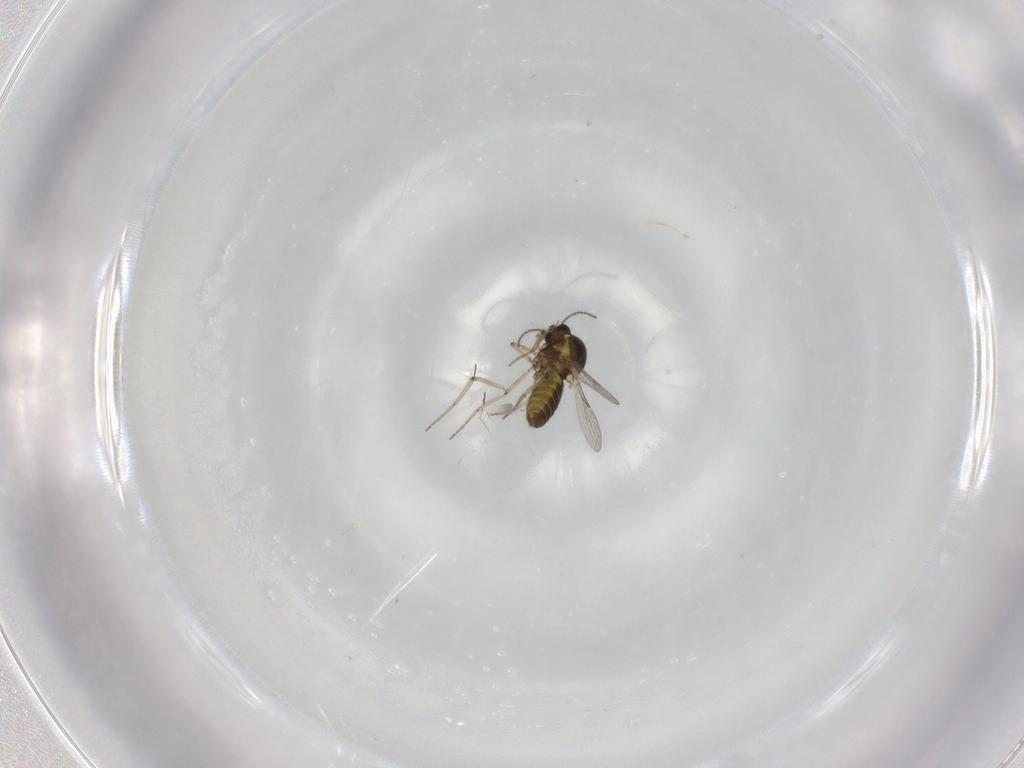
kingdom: Animalia
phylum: Arthropoda
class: Insecta
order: Diptera
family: Ceratopogonidae
